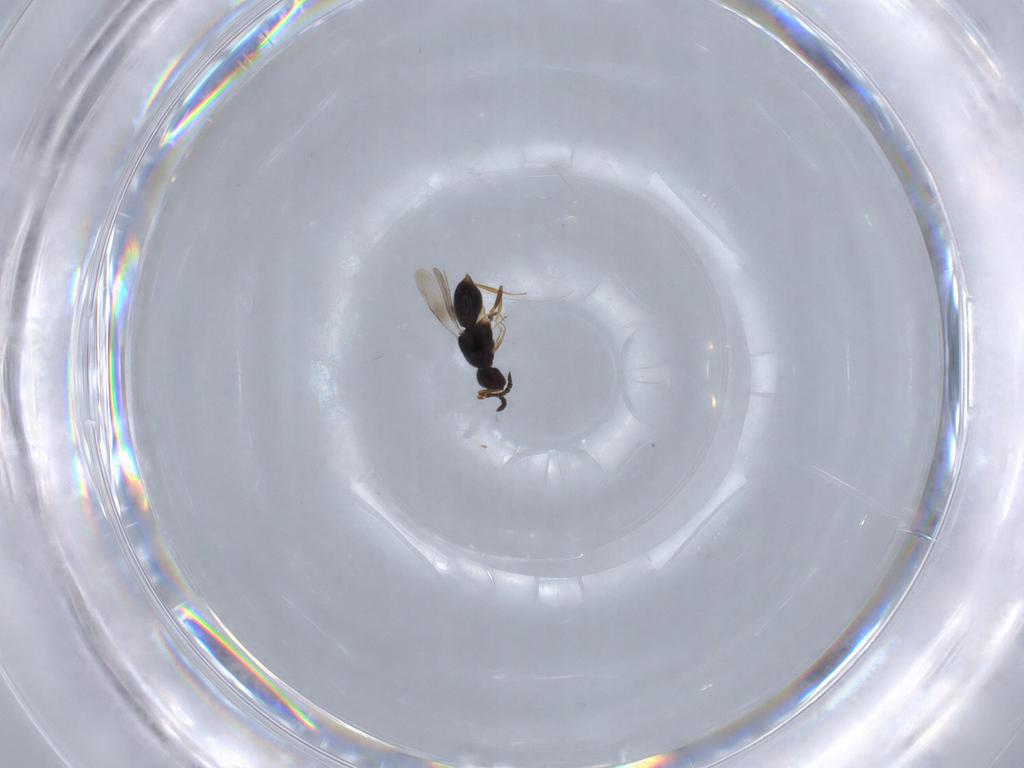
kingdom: Animalia
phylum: Arthropoda
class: Insecta
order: Hymenoptera
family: Ceraphronidae
